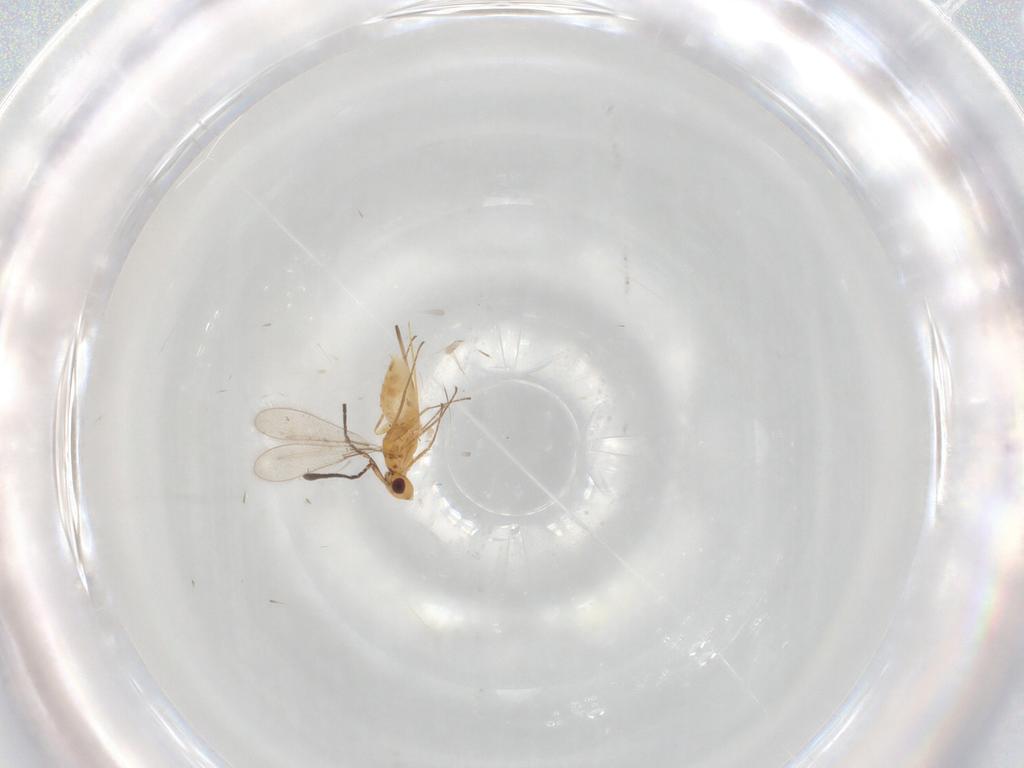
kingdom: Animalia
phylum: Arthropoda
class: Insecta
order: Hymenoptera
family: Mymaridae
